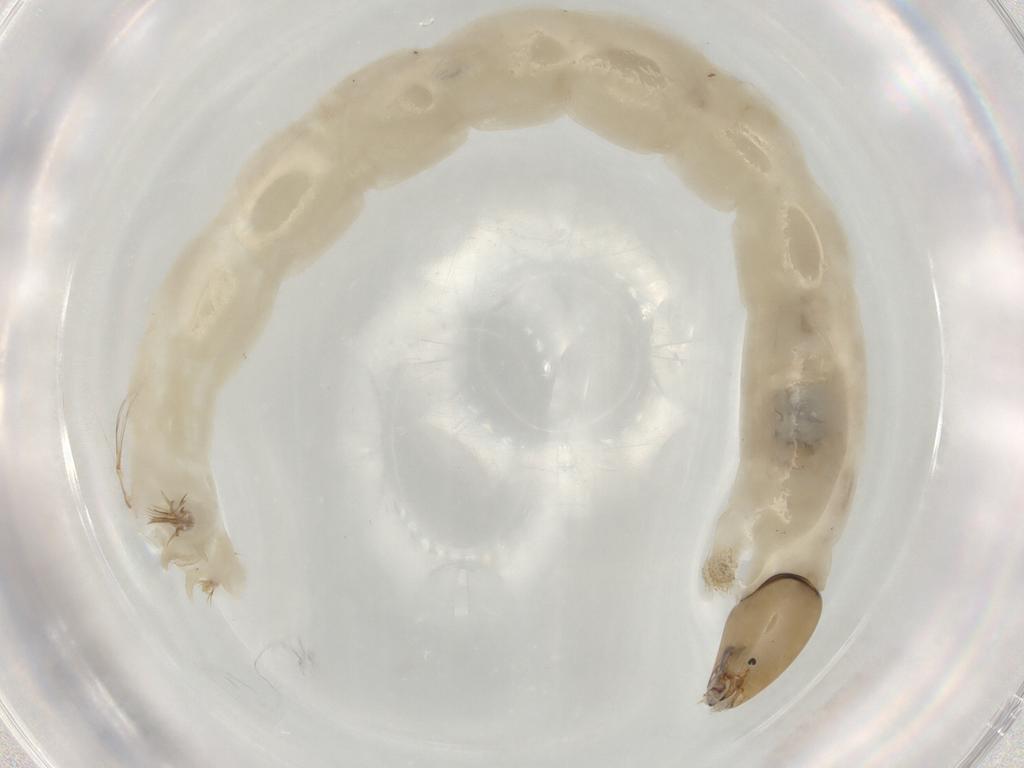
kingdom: Animalia
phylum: Arthropoda
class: Insecta
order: Diptera
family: Chironomidae
